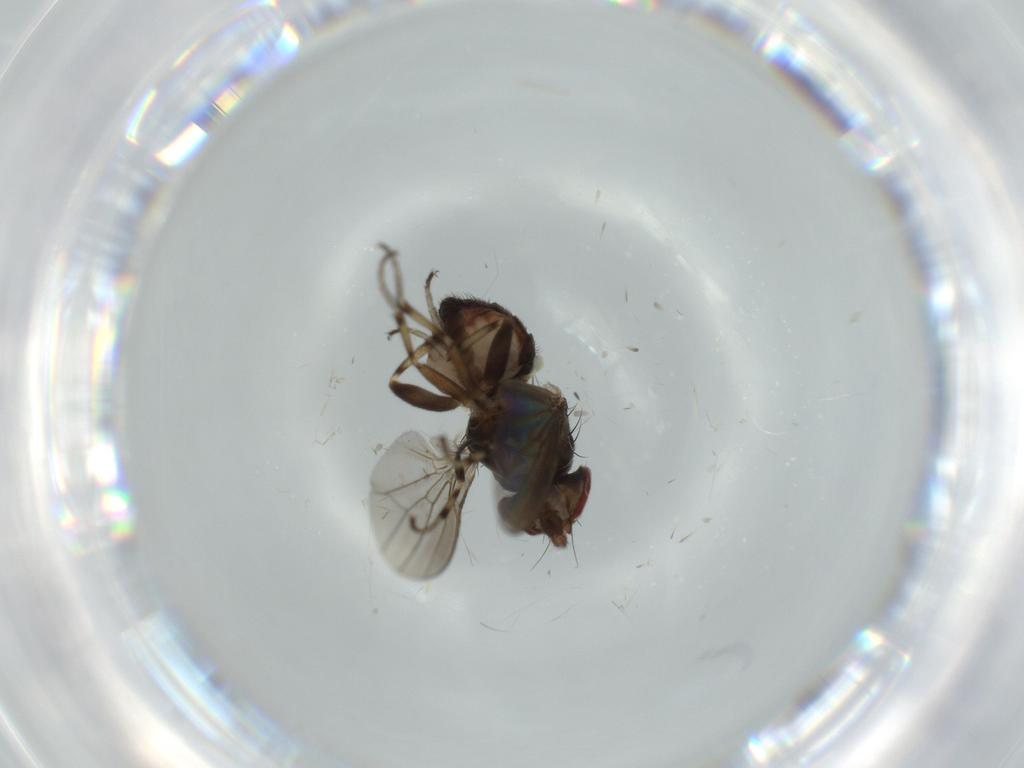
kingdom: Animalia
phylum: Arthropoda
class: Insecta
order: Diptera
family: Heleomyzidae
